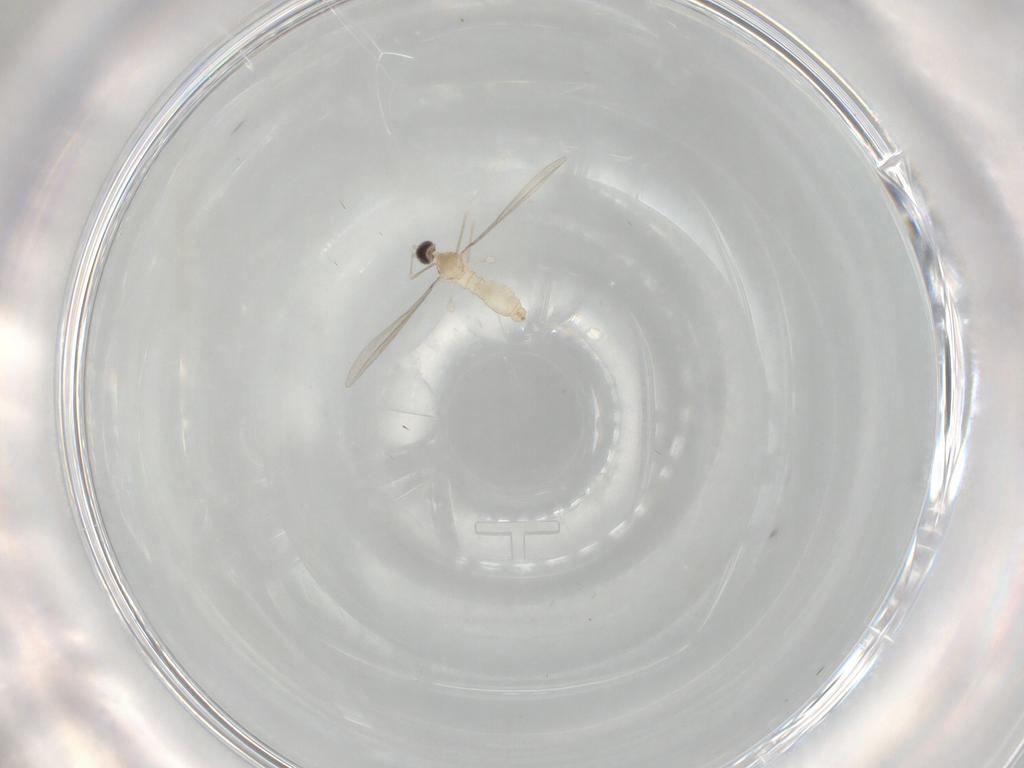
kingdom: Animalia
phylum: Arthropoda
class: Insecta
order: Diptera
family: Cecidomyiidae
